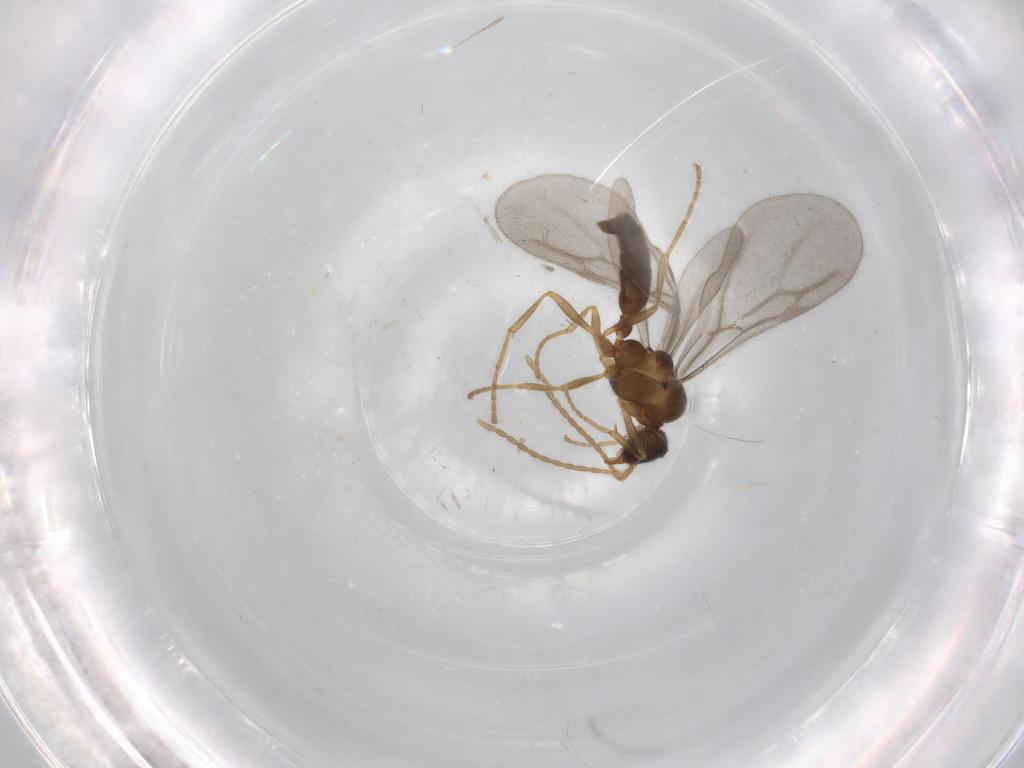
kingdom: Animalia
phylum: Arthropoda
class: Insecta
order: Hymenoptera
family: Formicidae
